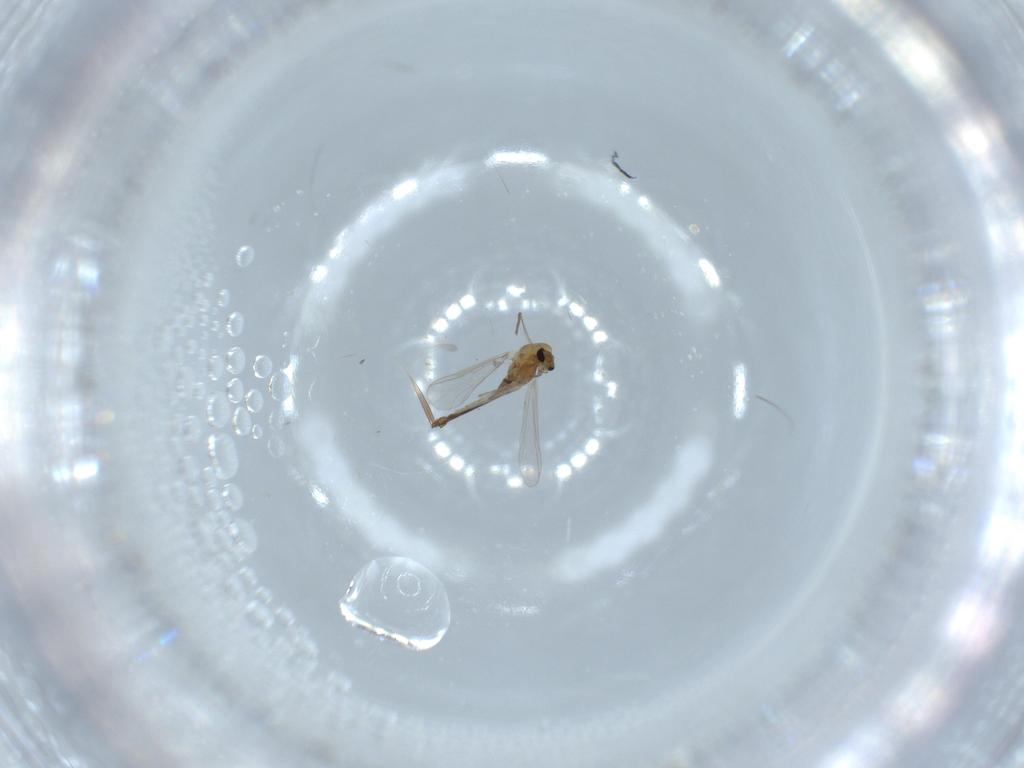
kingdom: Animalia
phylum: Arthropoda
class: Insecta
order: Diptera
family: Chironomidae
